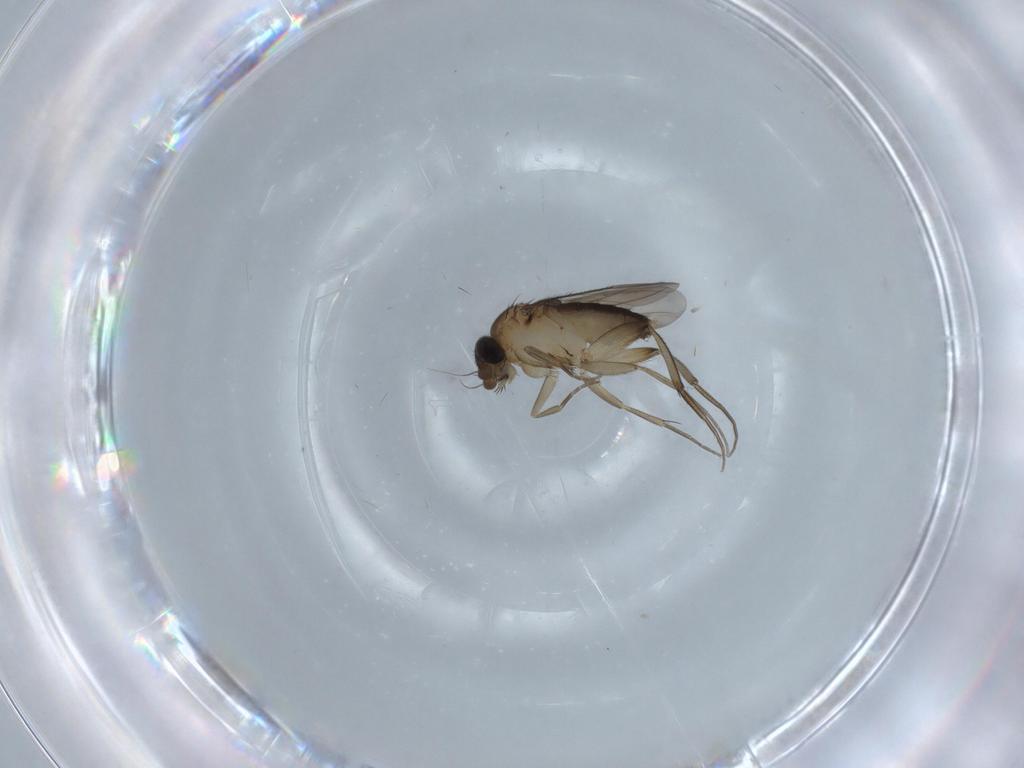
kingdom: Animalia
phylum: Arthropoda
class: Insecta
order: Diptera
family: Phoridae
